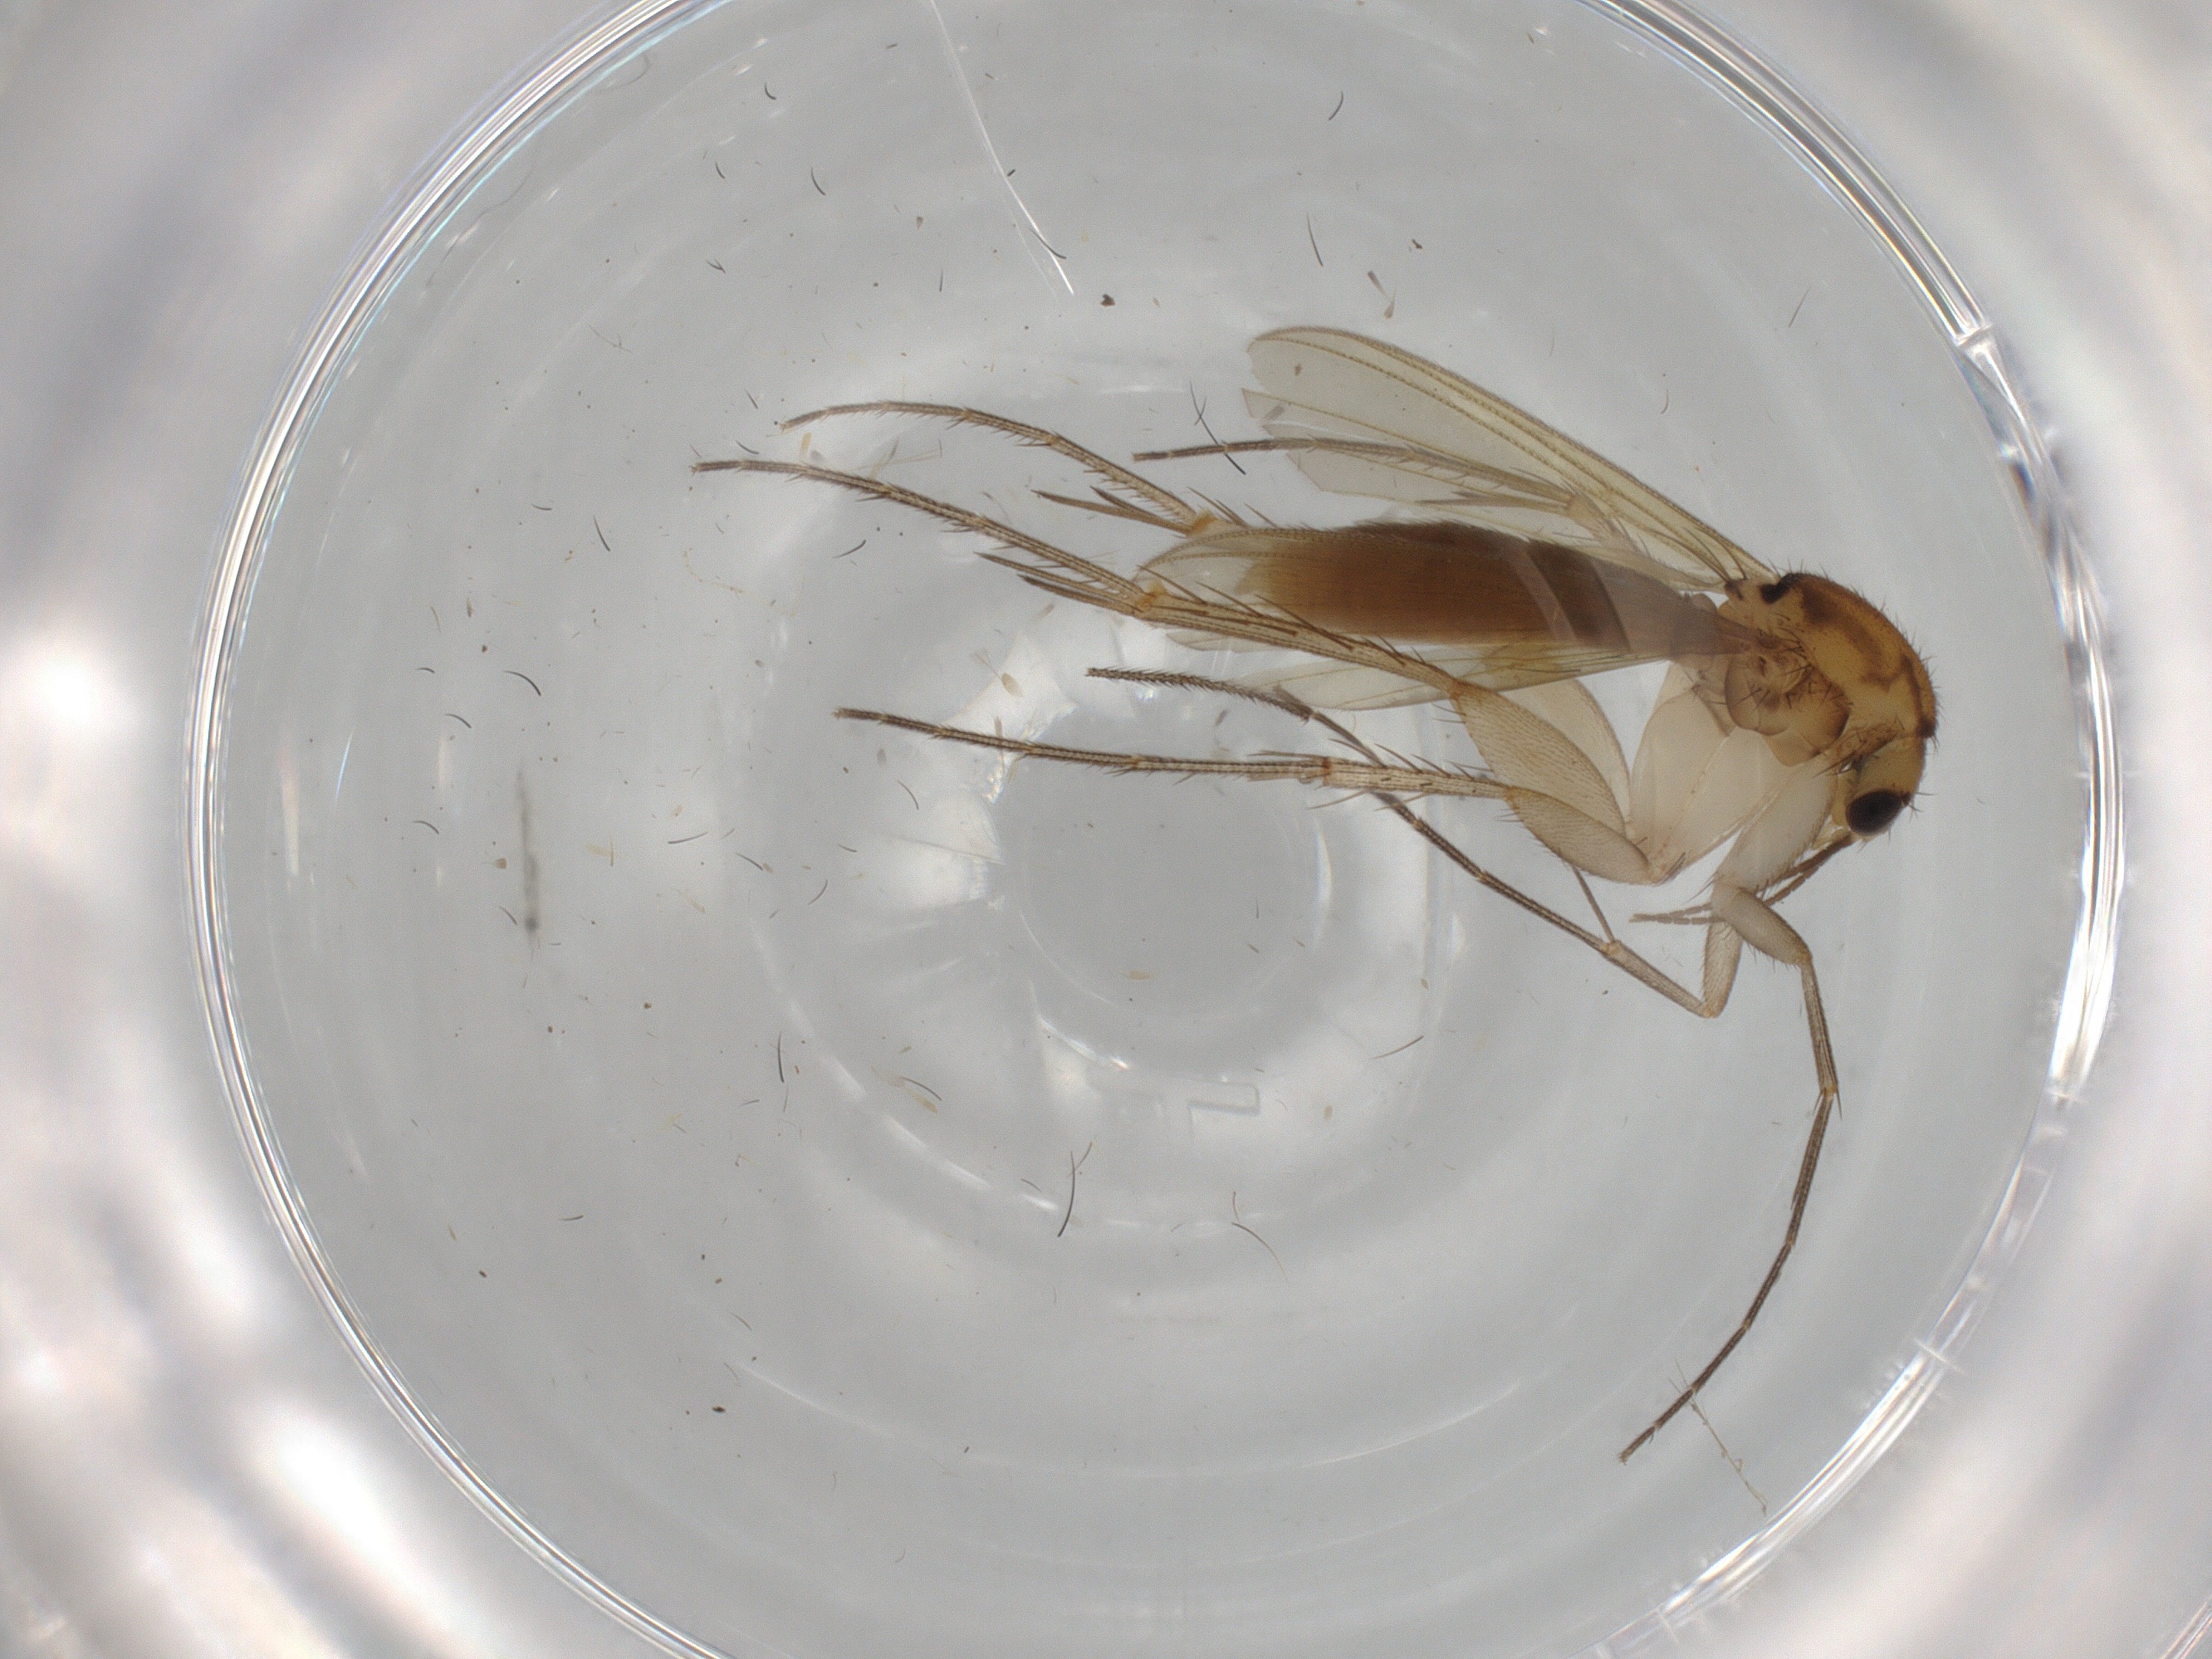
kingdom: Animalia
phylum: Arthropoda
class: Insecta
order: Diptera
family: Mycetophilidae
